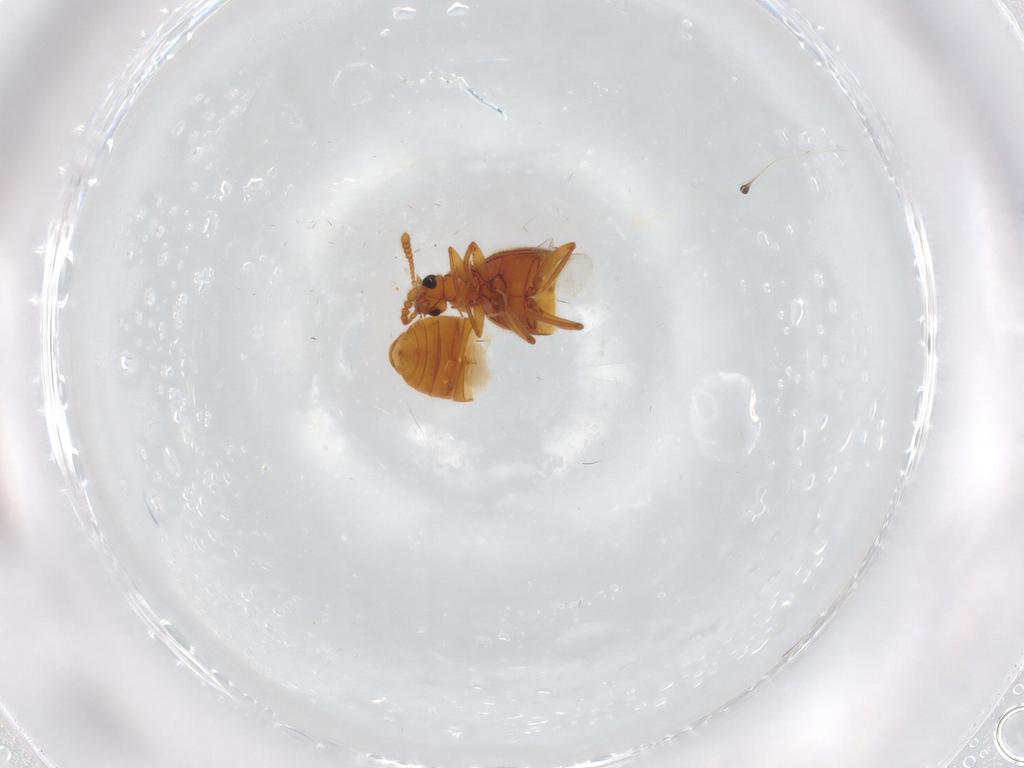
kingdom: Animalia
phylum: Arthropoda
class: Insecta
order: Coleoptera
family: Staphylinidae
